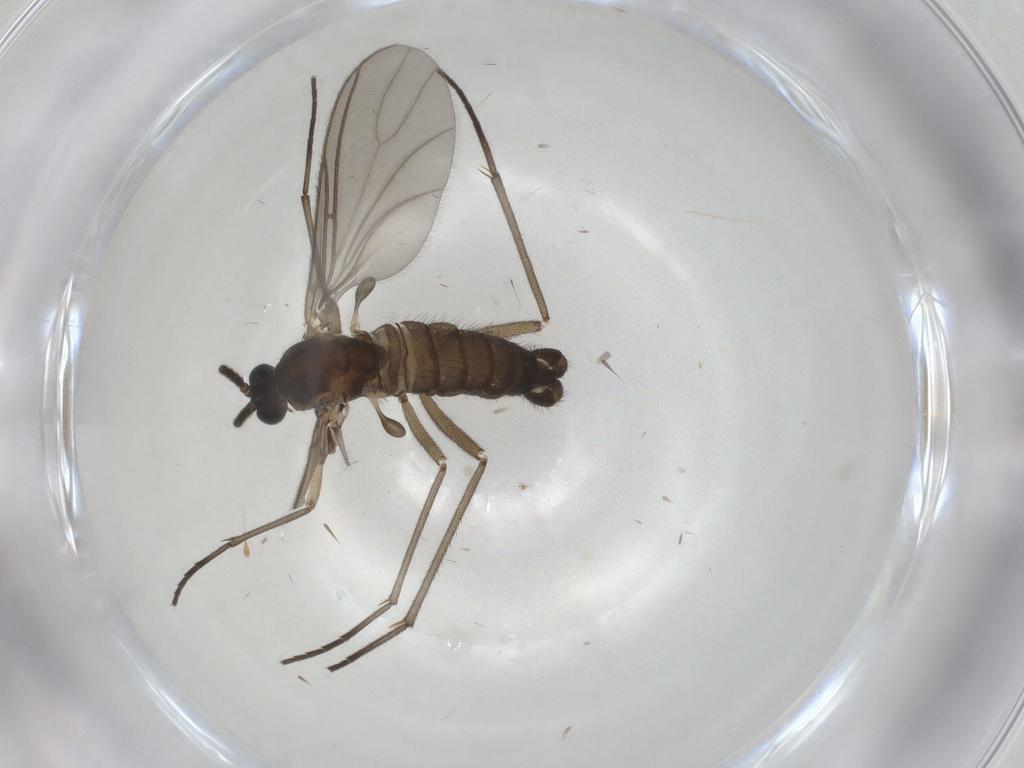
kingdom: Animalia
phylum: Arthropoda
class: Insecta
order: Diptera
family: Sciaridae
